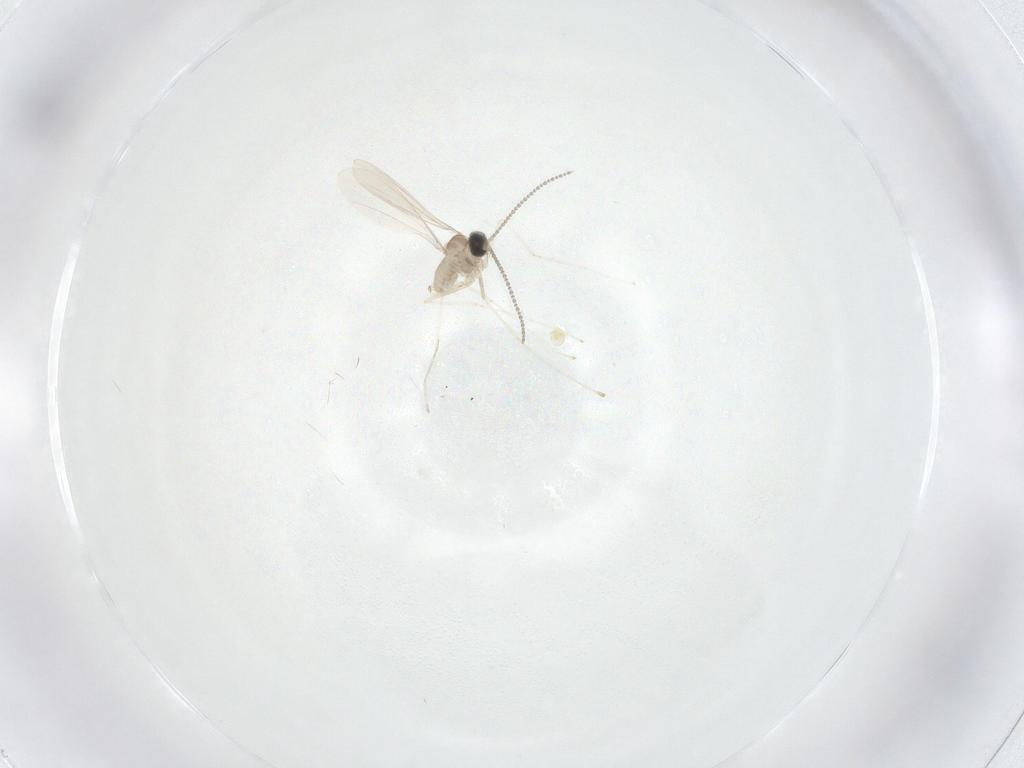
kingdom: Animalia
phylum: Arthropoda
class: Insecta
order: Diptera
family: Cecidomyiidae
